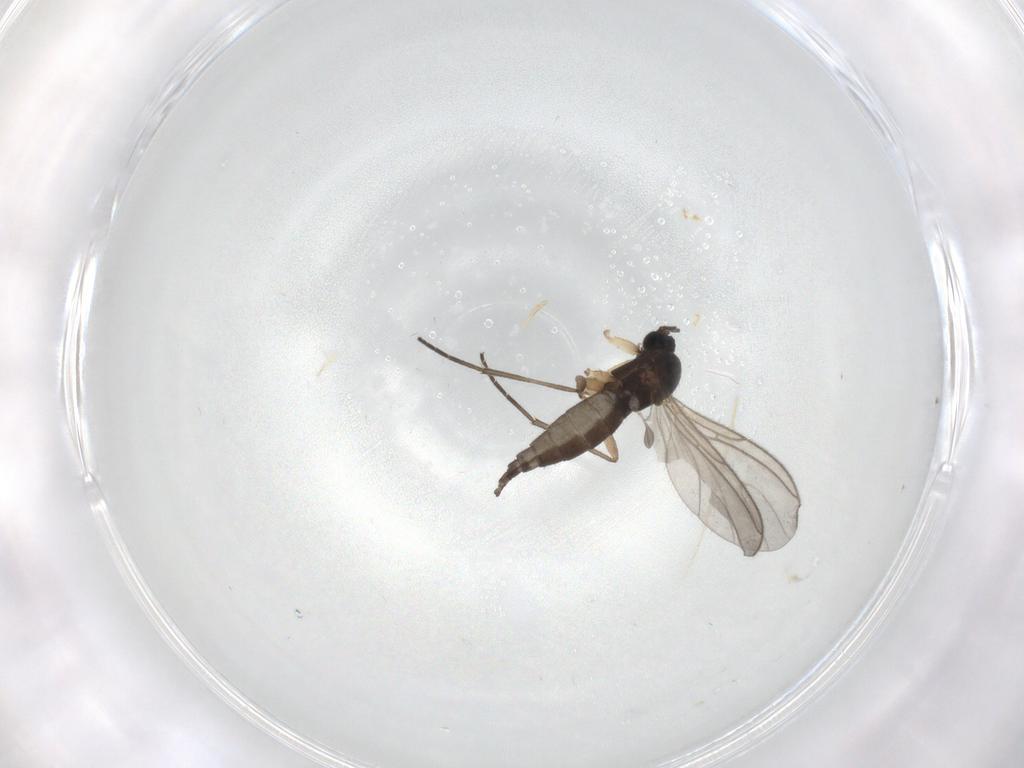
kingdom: Animalia
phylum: Arthropoda
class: Insecta
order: Diptera
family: Sciaridae
